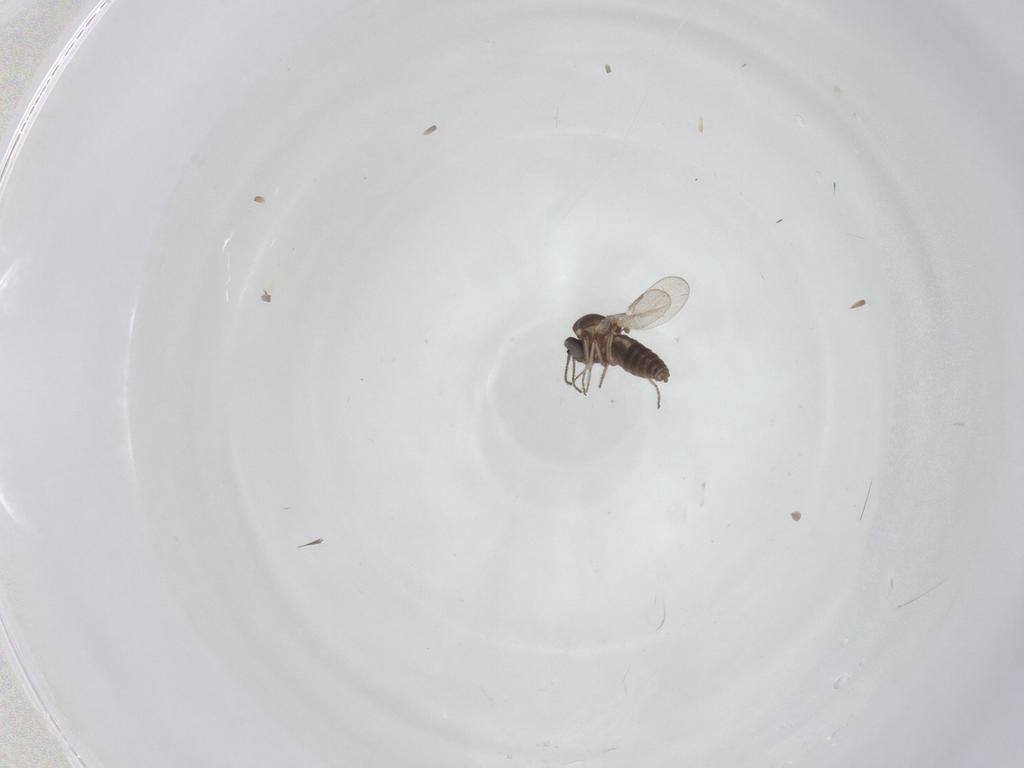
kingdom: Animalia
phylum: Arthropoda
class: Insecta
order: Diptera
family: Ceratopogonidae
